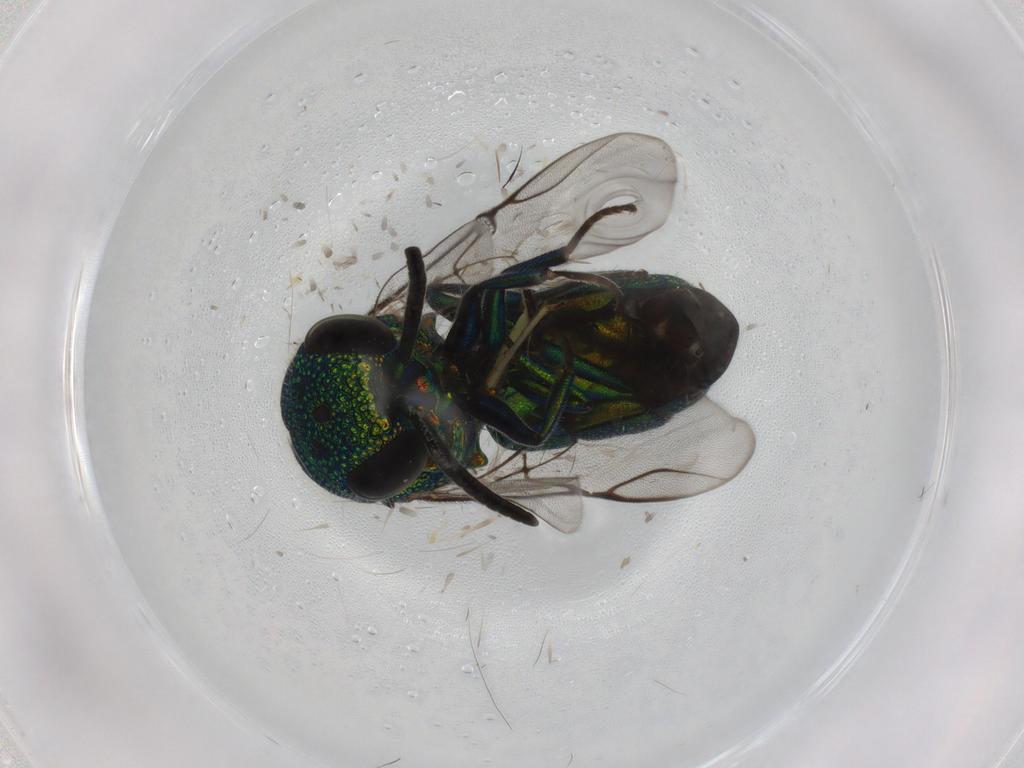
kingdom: Animalia
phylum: Arthropoda
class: Insecta
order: Hymenoptera
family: Chrysididae
